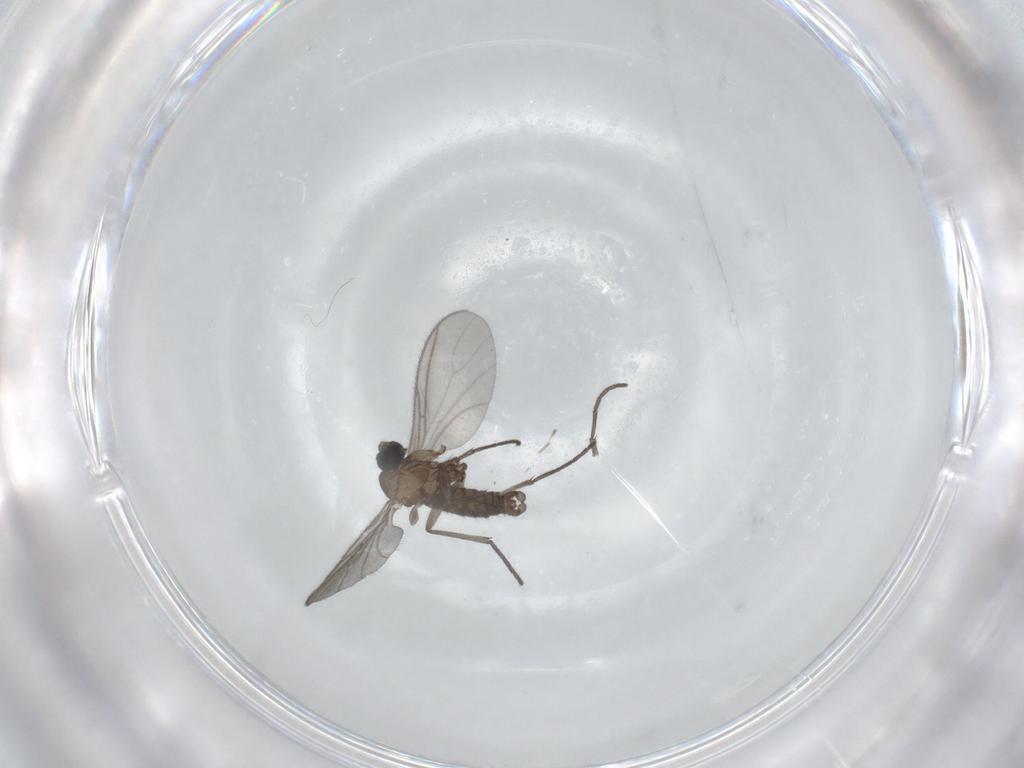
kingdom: Animalia
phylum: Arthropoda
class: Insecta
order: Diptera
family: Sciaridae
